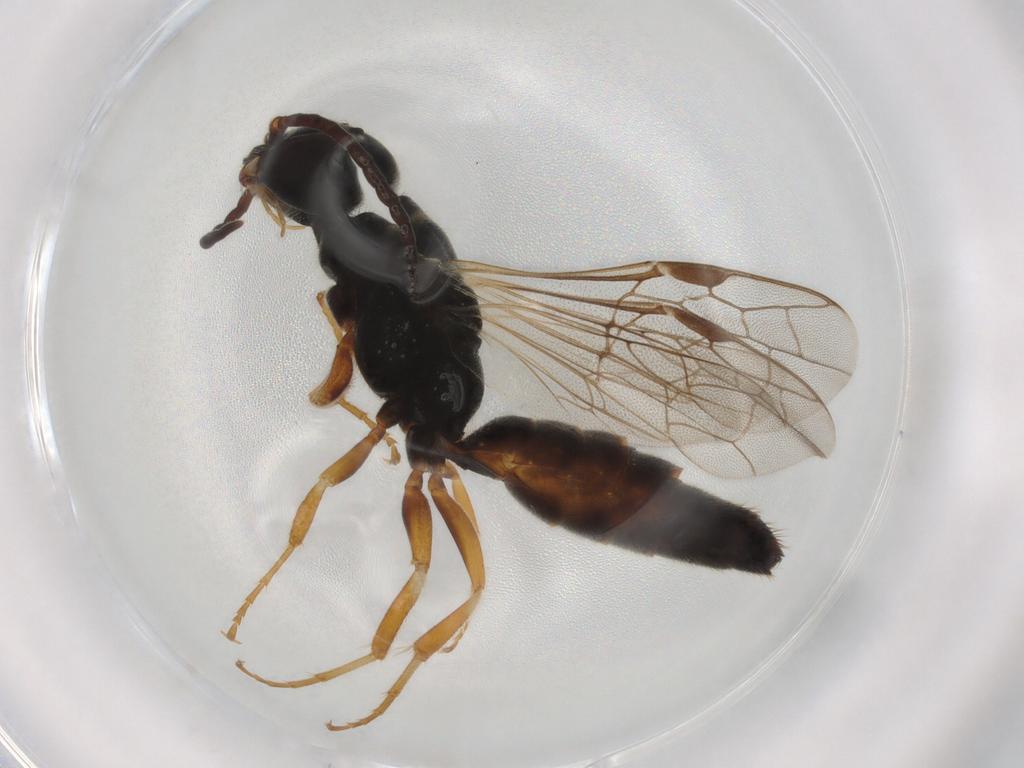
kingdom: Animalia
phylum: Arthropoda
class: Insecta
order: Hymenoptera
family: Thynnidae
